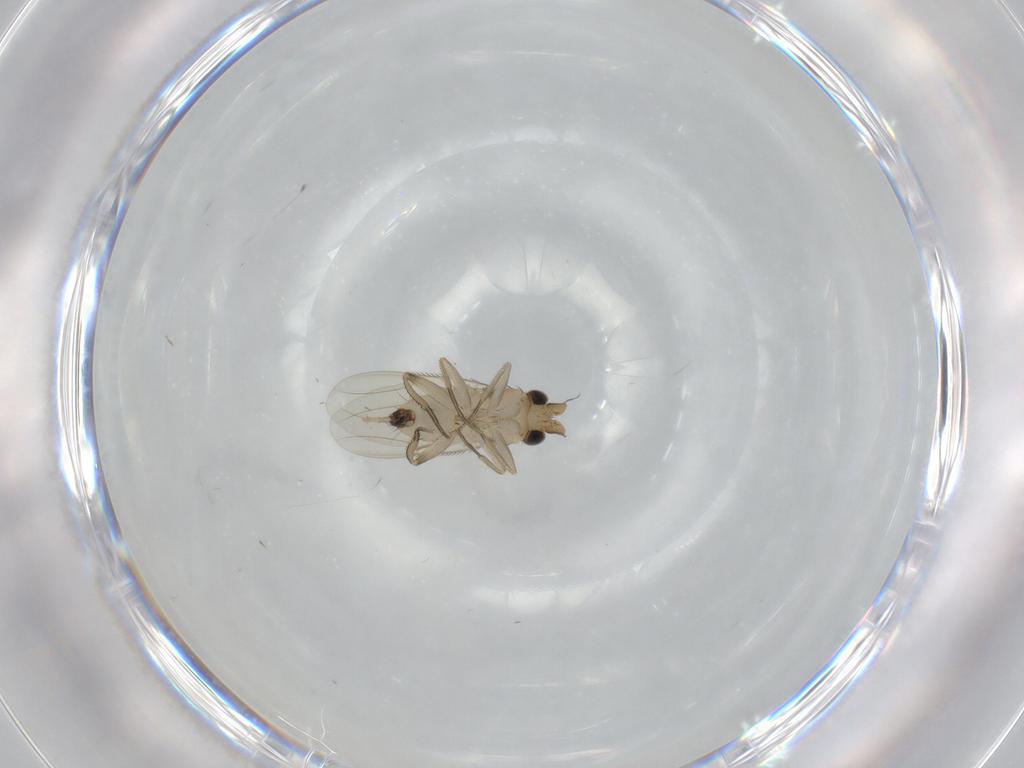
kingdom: Animalia
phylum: Arthropoda
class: Insecta
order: Diptera
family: Phoridae
